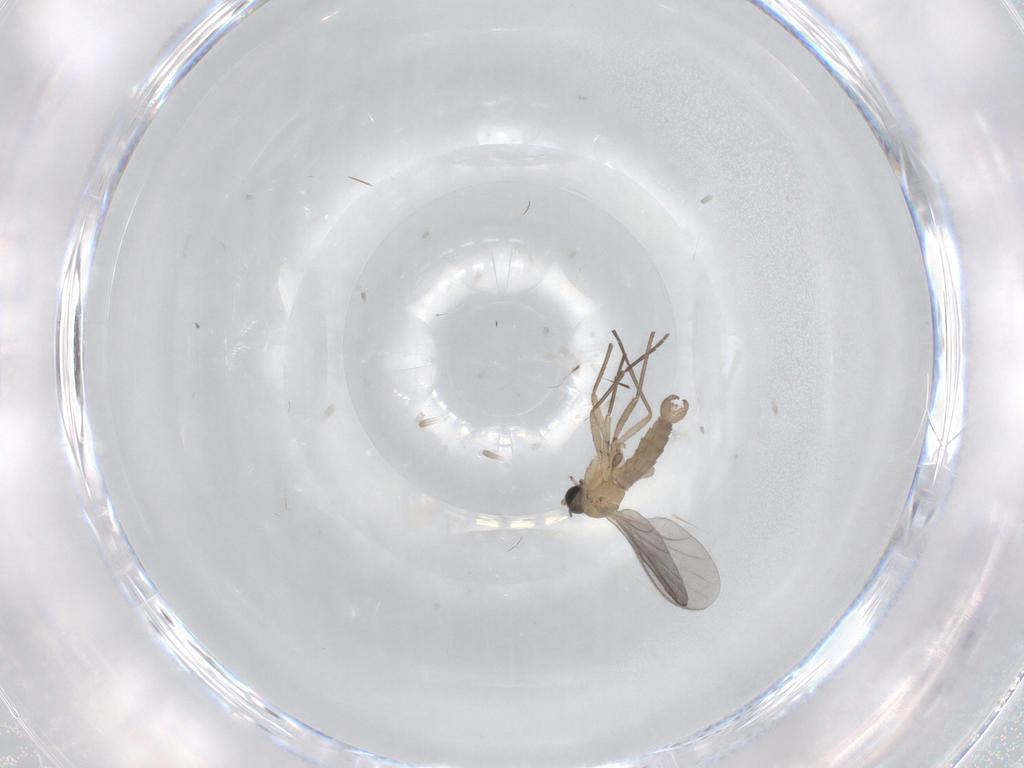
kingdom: Animalia
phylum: Arthropoda
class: Insecta
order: Diptera
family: Sciaridae
